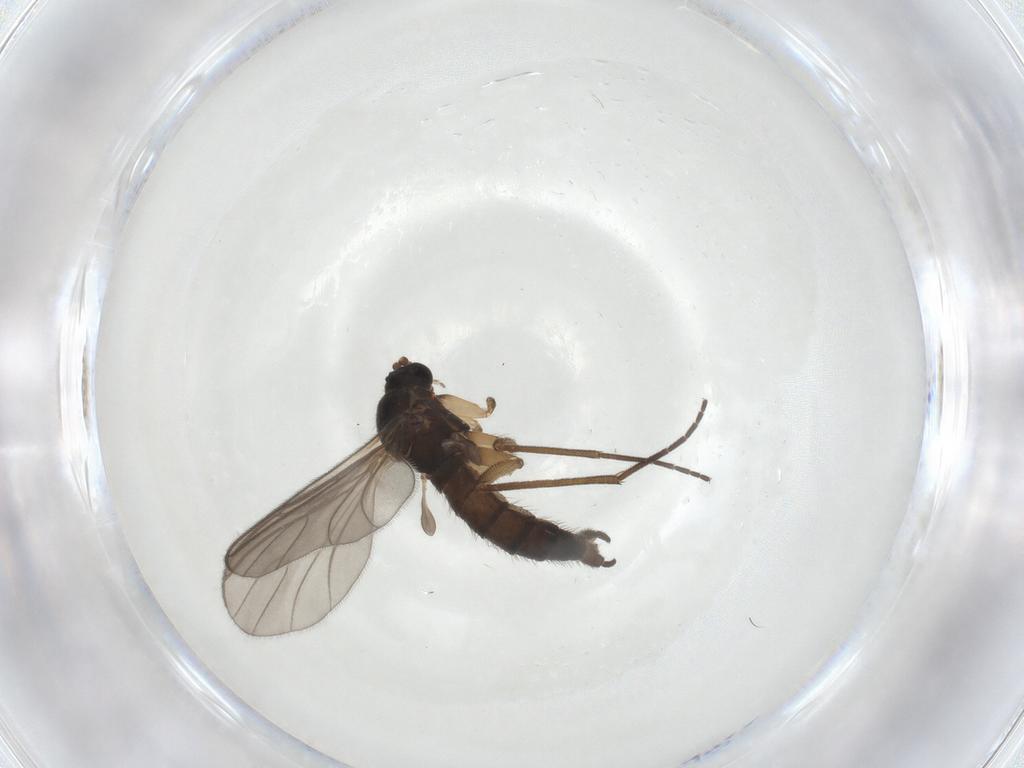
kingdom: Animalia
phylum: Arthropoda
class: Insecta
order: Diptera
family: Sciaridae
